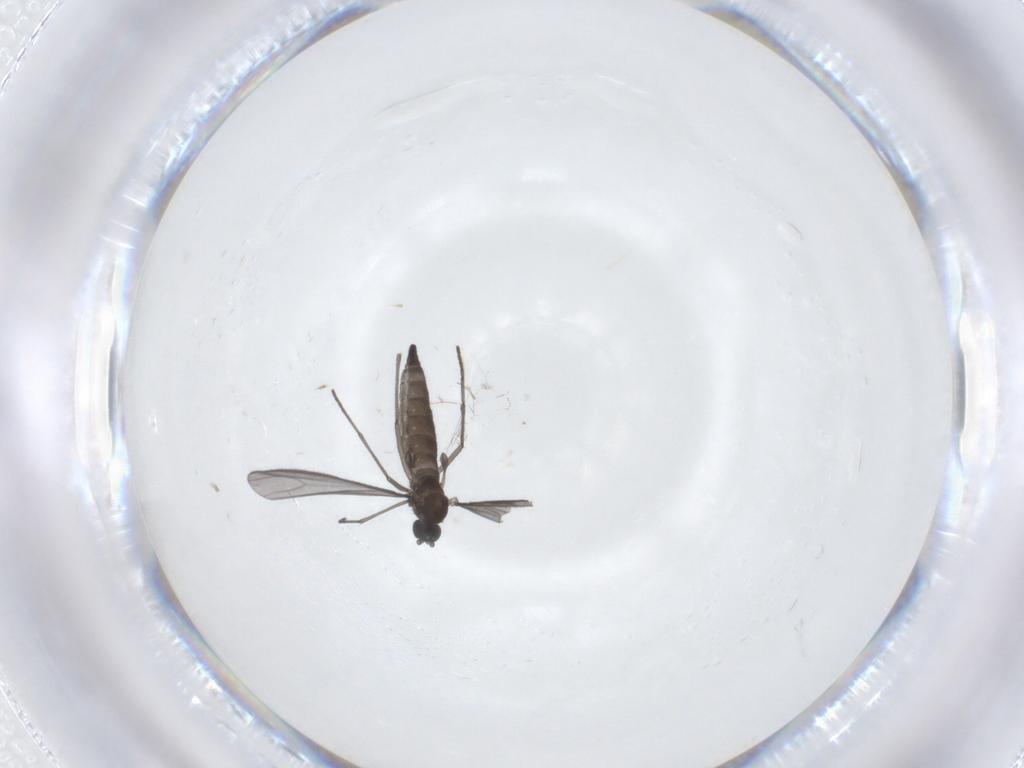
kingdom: Animalia
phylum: Arthropoda
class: Insecta
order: Diptera
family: Sciaridae
